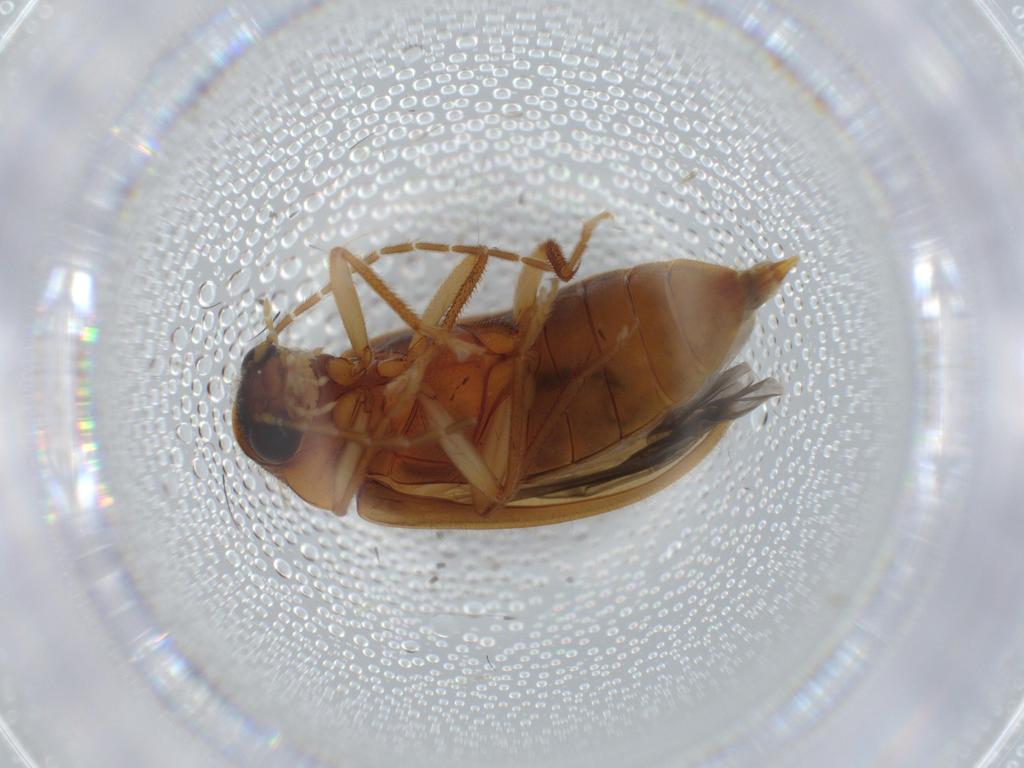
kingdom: Animalia
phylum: Arthropoda
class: Insecta
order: Coleoptera
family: Ptilodactylidae
